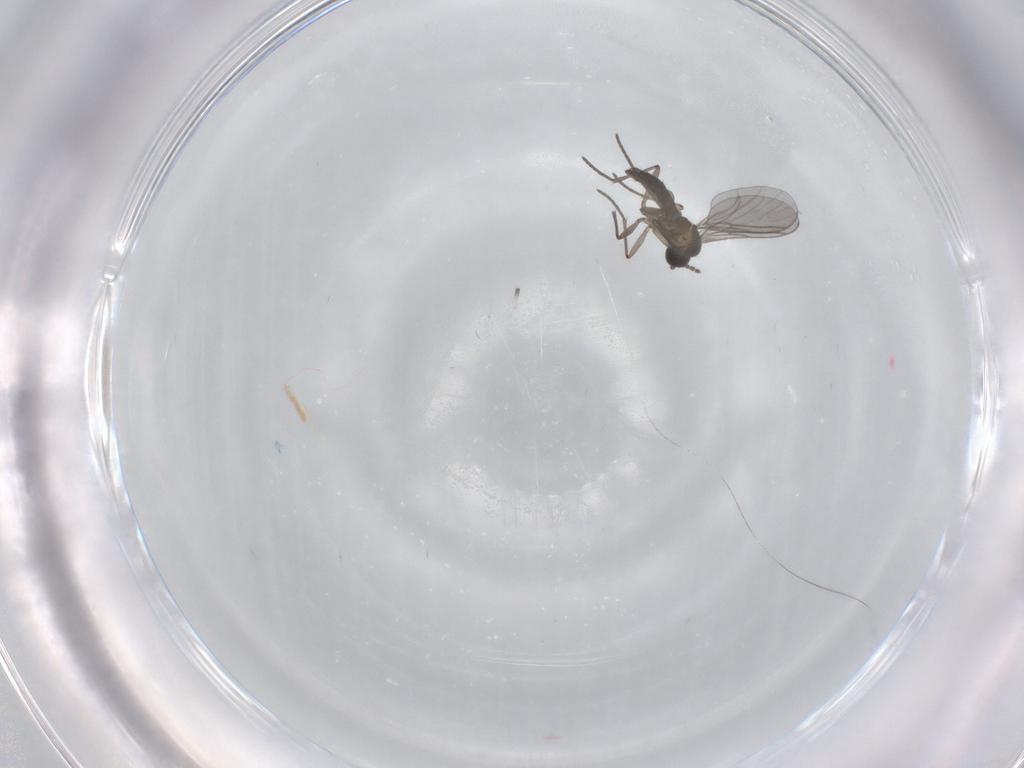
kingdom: Animalia
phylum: Arthropoda
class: Insecta
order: Diptera
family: Sciaridae
